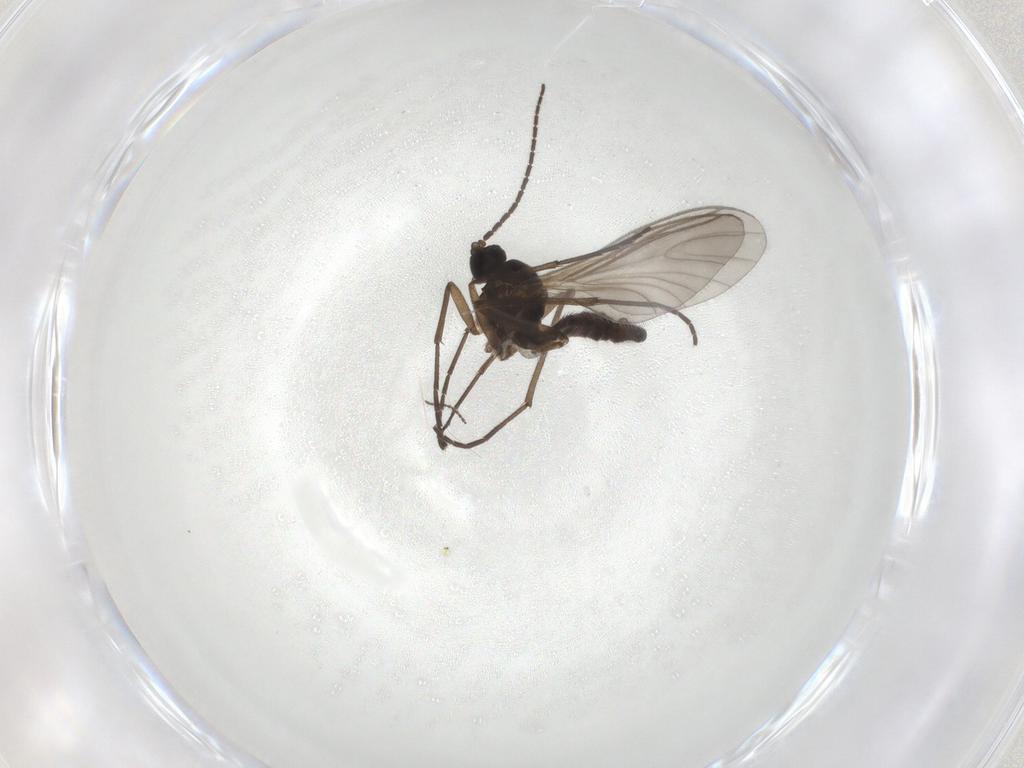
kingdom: Animalia
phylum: Arthropoda
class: Insecta
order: Diptera
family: Sciaridae
